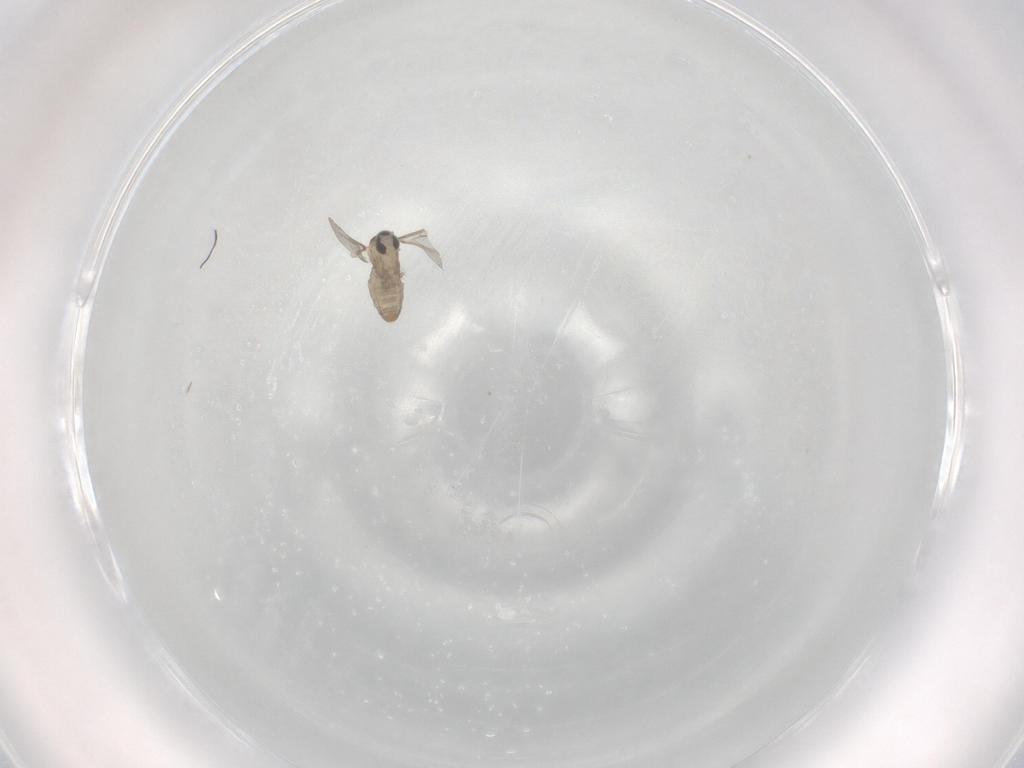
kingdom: Animalia
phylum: Arthropoda
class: Insecta
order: Diptera
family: Cecidomyiidae
